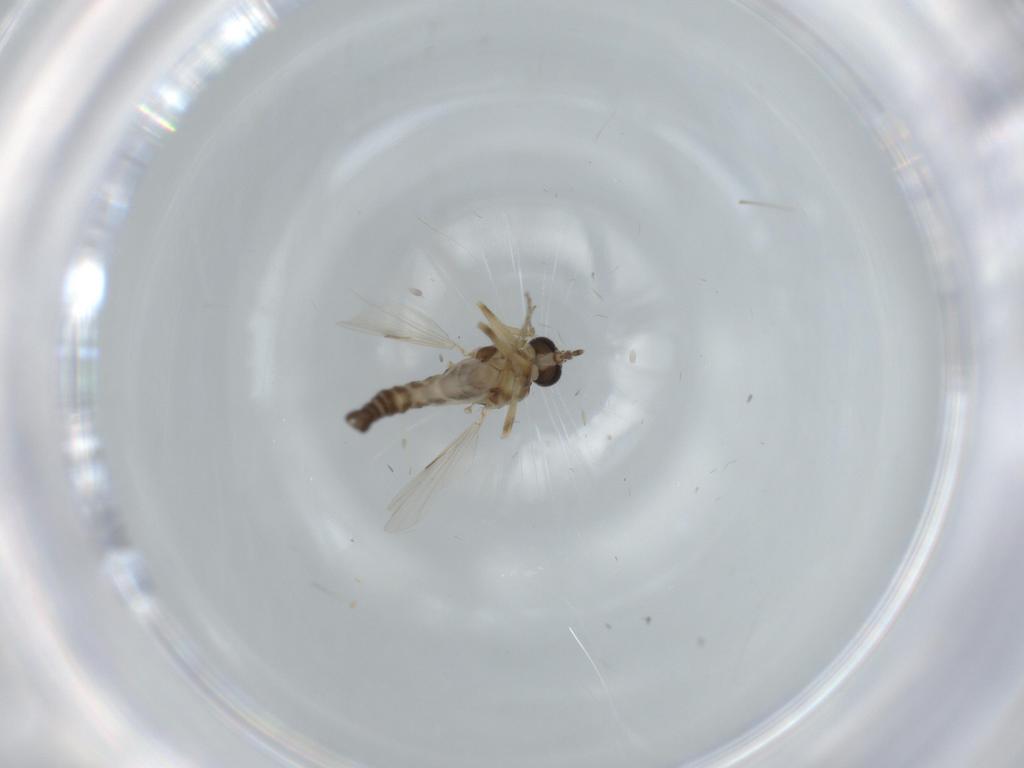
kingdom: Animalia
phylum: Arthropoda
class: Insecta
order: Diptera
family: Ceratopogonidae
